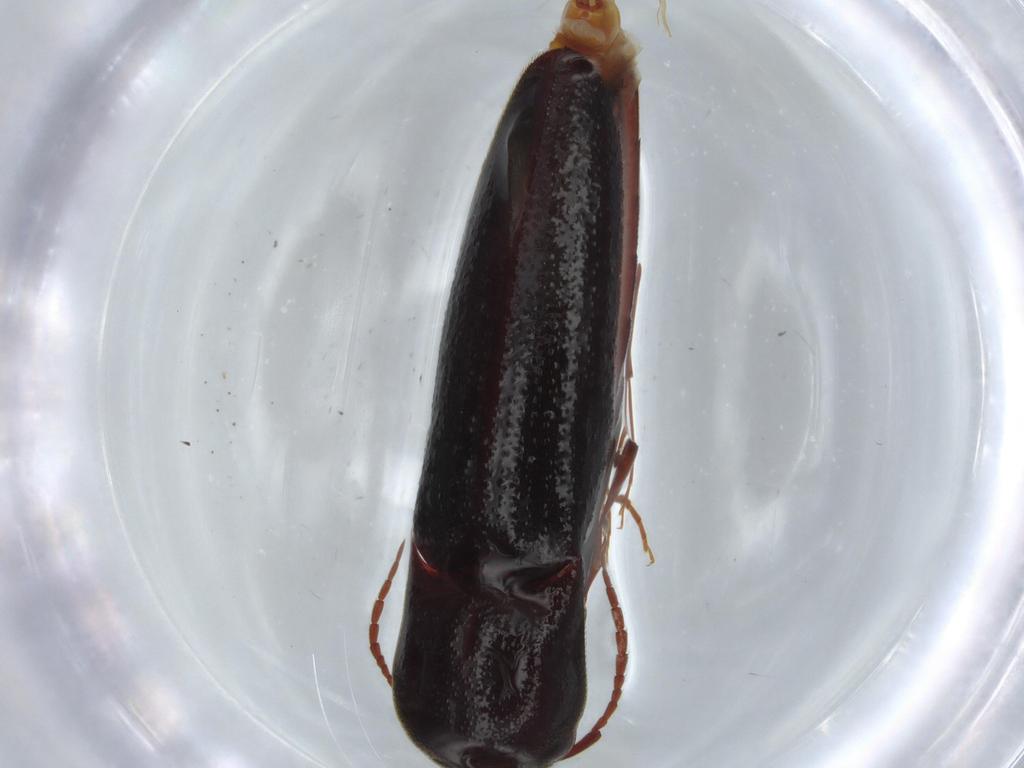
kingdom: Animalia
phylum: Arthropoda
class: Insecta
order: Coleoptera
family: Eucnemidae
